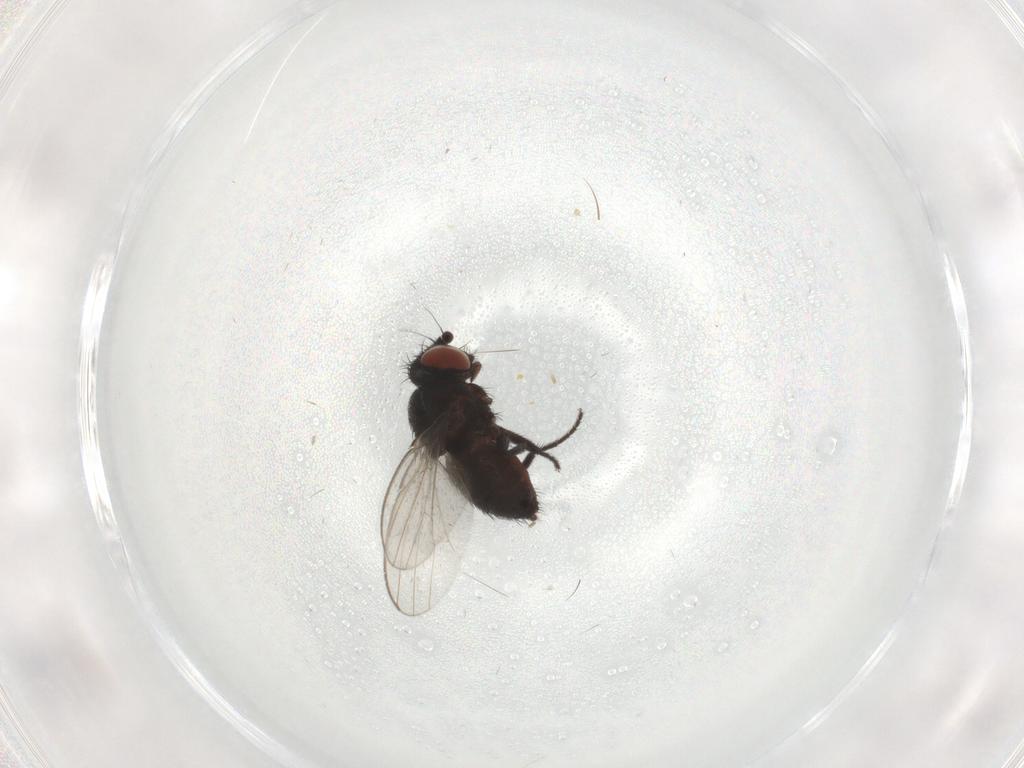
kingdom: Animalia
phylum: Arthropoda
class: Insecta
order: Diptera
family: Milichiidae
